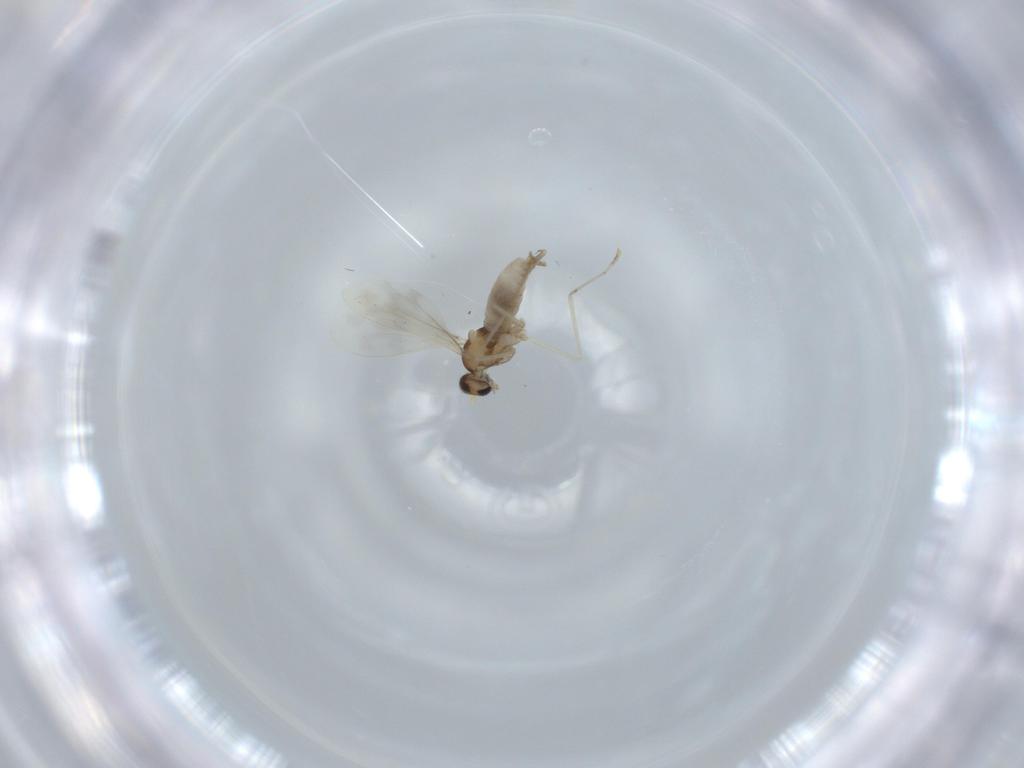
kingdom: Animalia
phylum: Arthropoda
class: Insecta
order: Diptera
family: Cecidomyiidae
